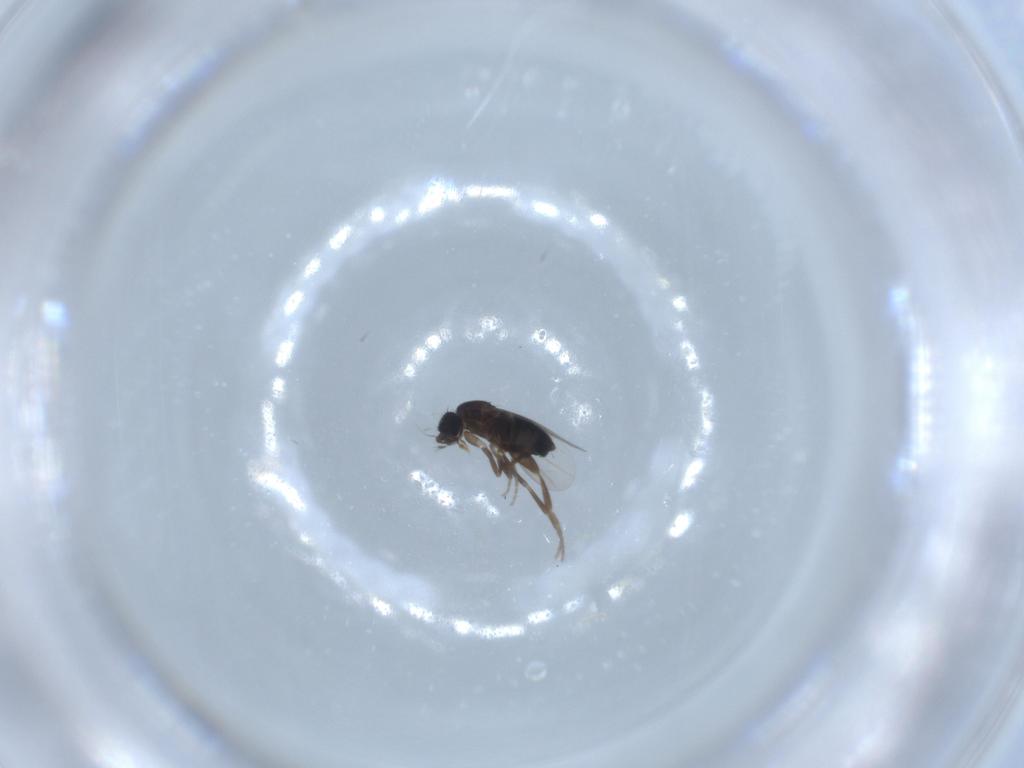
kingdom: Animalia
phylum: Arthropoda
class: Insecta
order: Diptera
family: Phoridae
